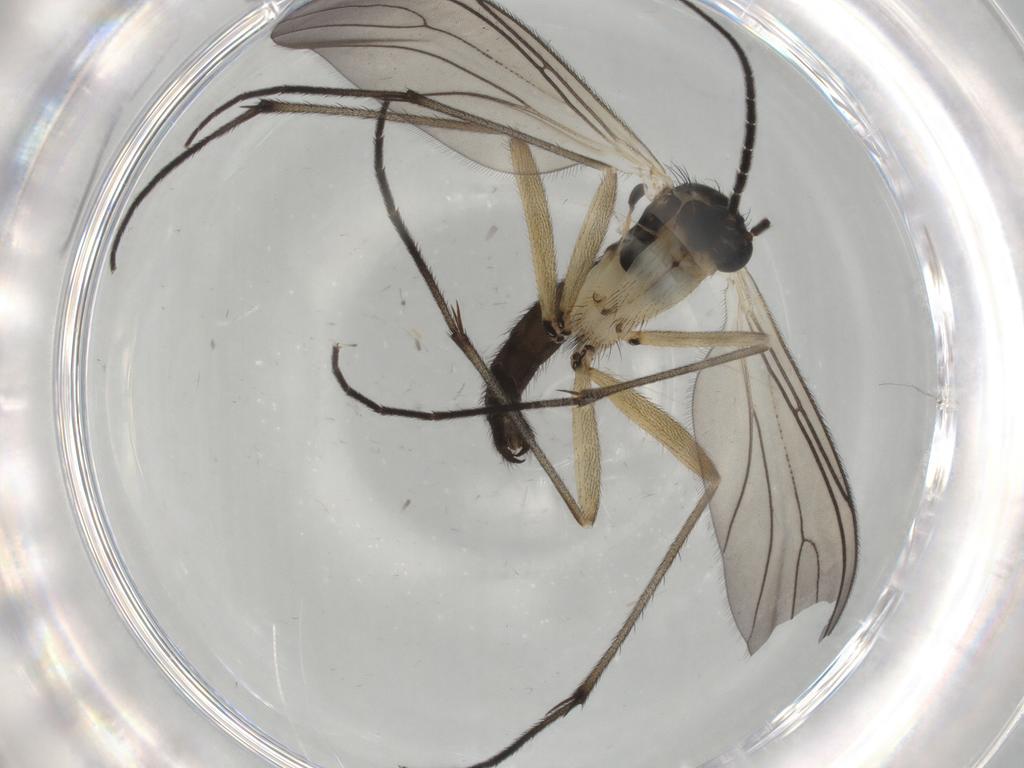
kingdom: Animalia
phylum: Arthropoda
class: Insecta
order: Diptera
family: Sciaridae
